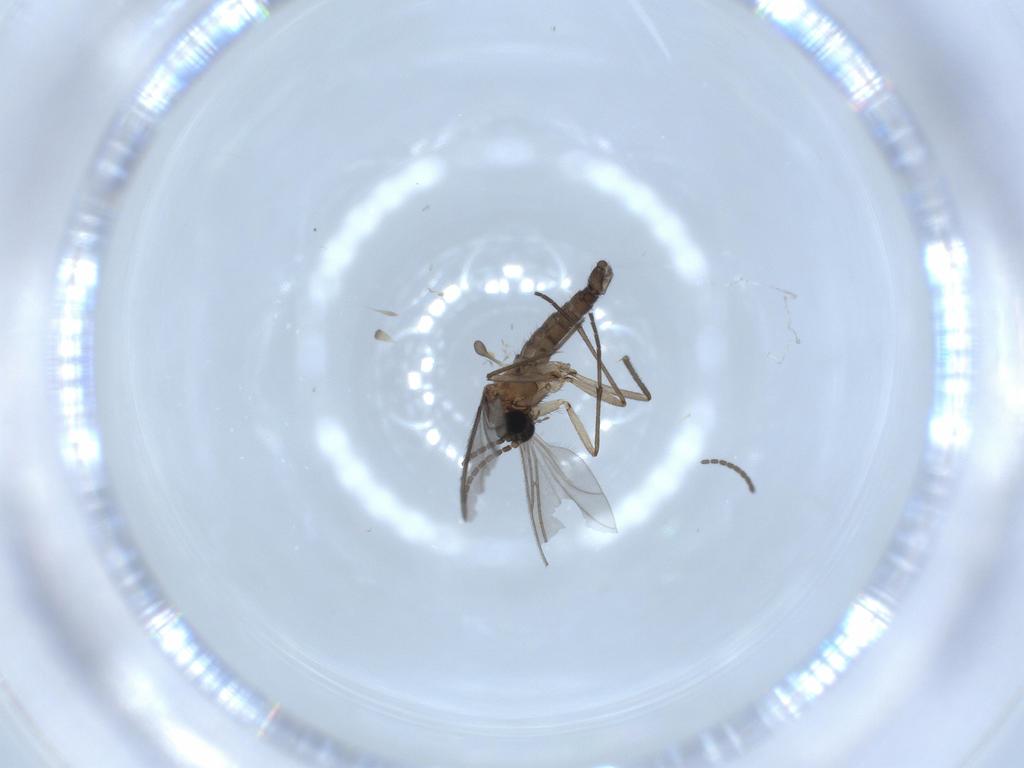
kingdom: Animalia
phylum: Arthropoda
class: Insecta
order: Diptera
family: Sciaridae
